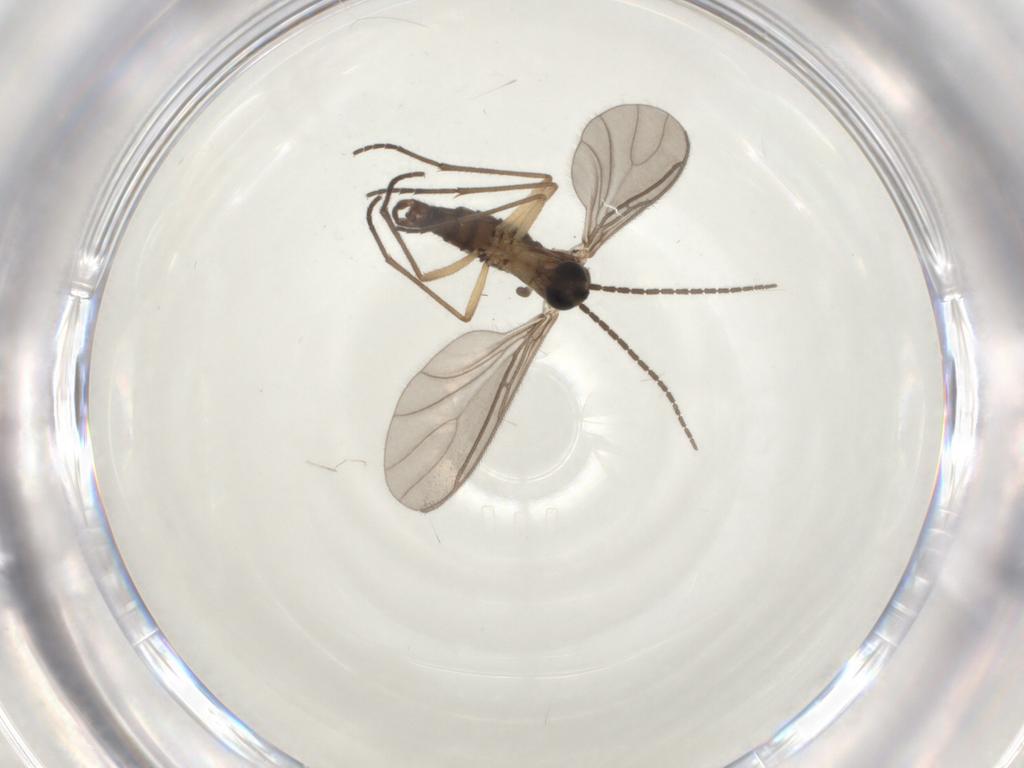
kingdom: Animalia
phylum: Arthropoda
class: Insecta
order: Diptera
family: Sciaridae
